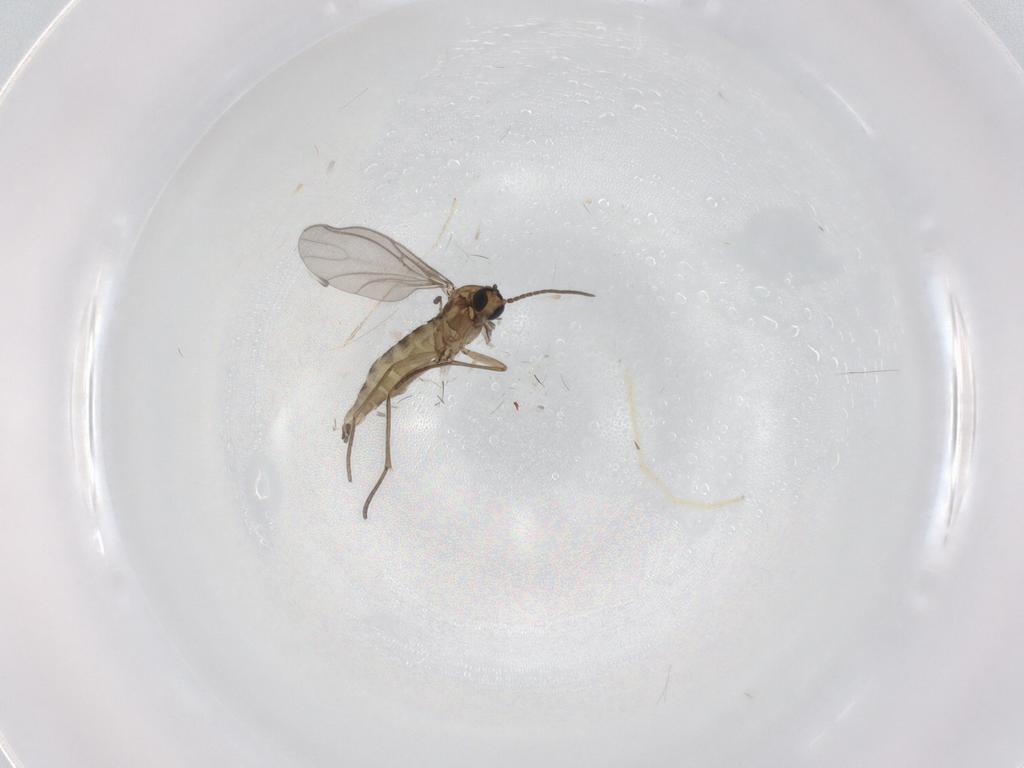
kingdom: Animalia
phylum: Arthropoda
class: Insecta
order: Diptera
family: Sciaridae
